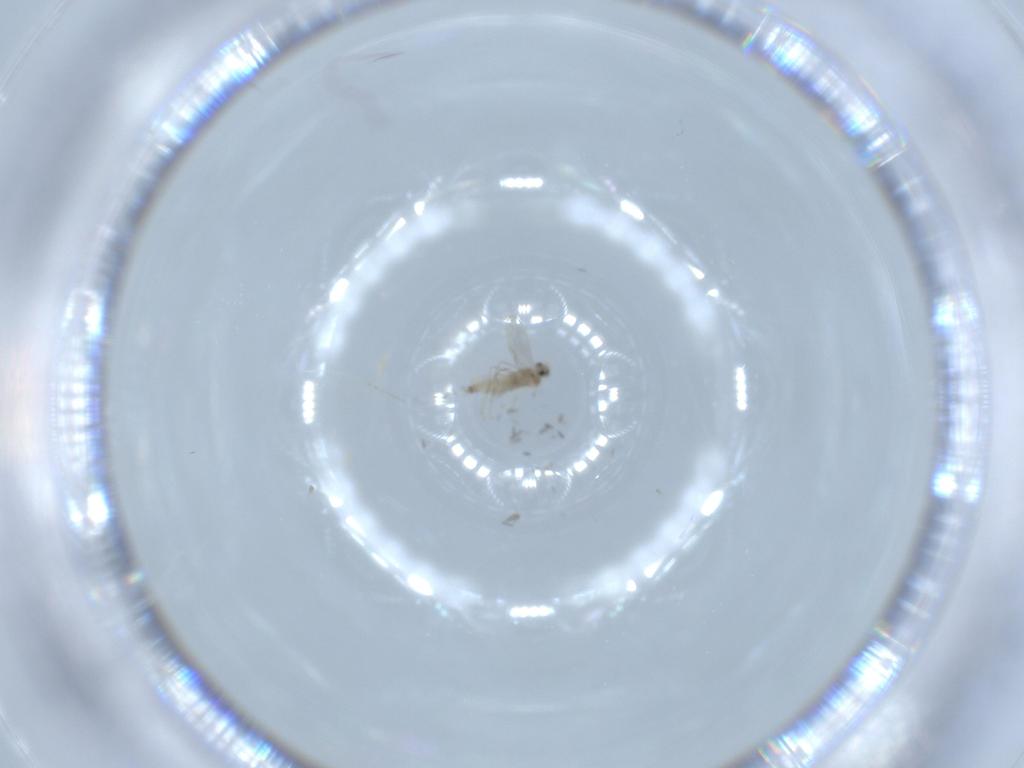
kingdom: Animalia
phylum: Arthropoda
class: Insecta
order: Diptera
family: Cecidomyiidae
